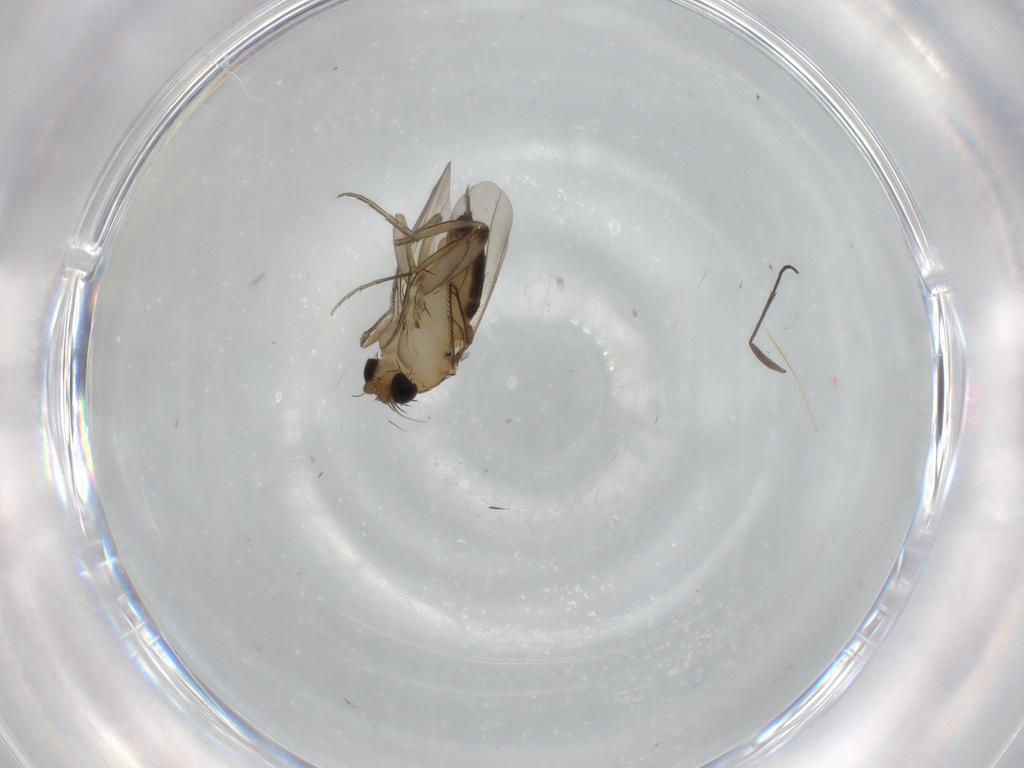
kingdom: Animalia
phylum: Arthropoda
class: Insecta
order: Diptera
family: Phoridae
